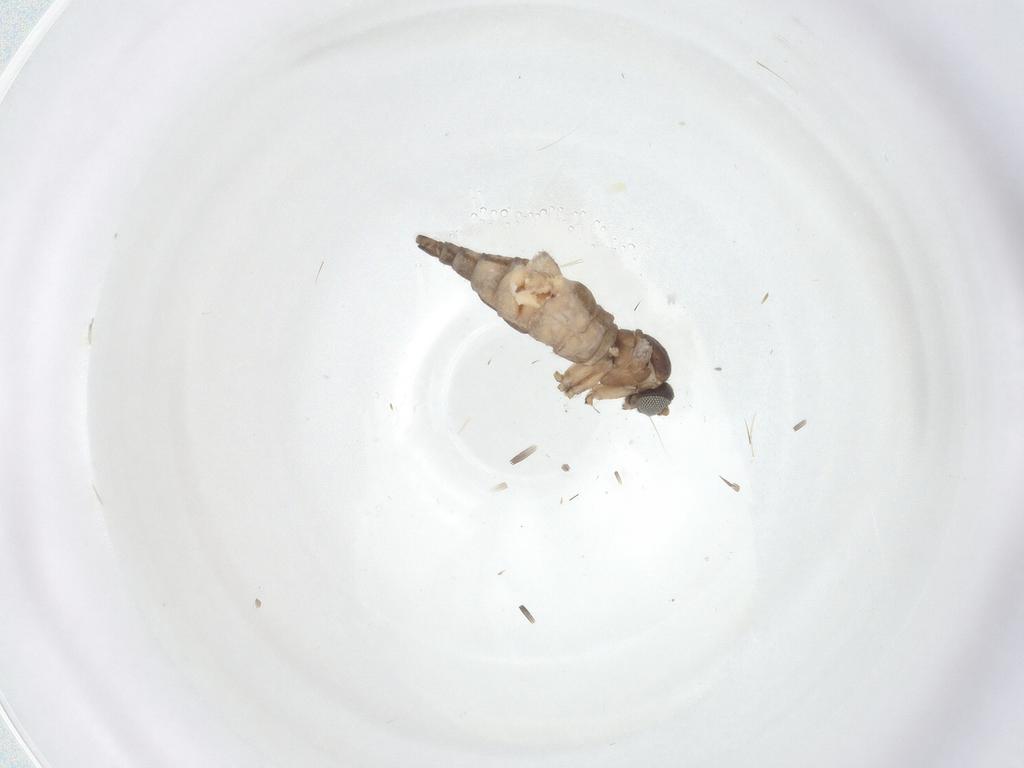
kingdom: Animalia
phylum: Arthropoda
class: Insecta
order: Diptera
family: Sciaridae
